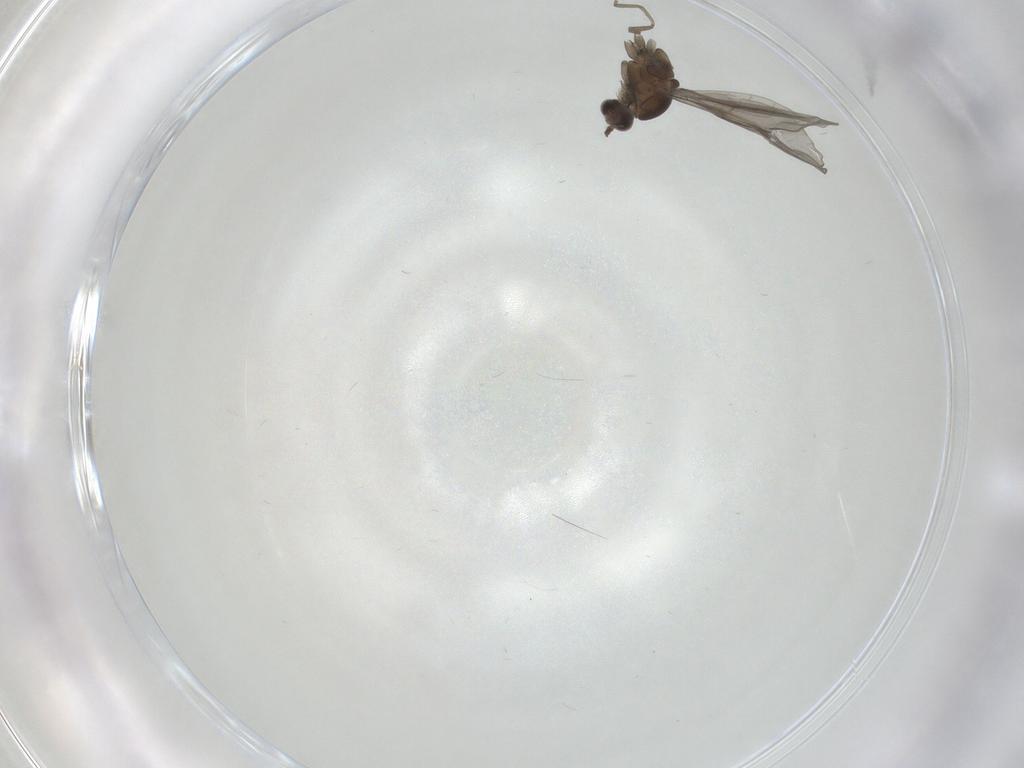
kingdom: Animalia
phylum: Arthropoda
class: Insecta
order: Diptera
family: Cecidomyiidae
